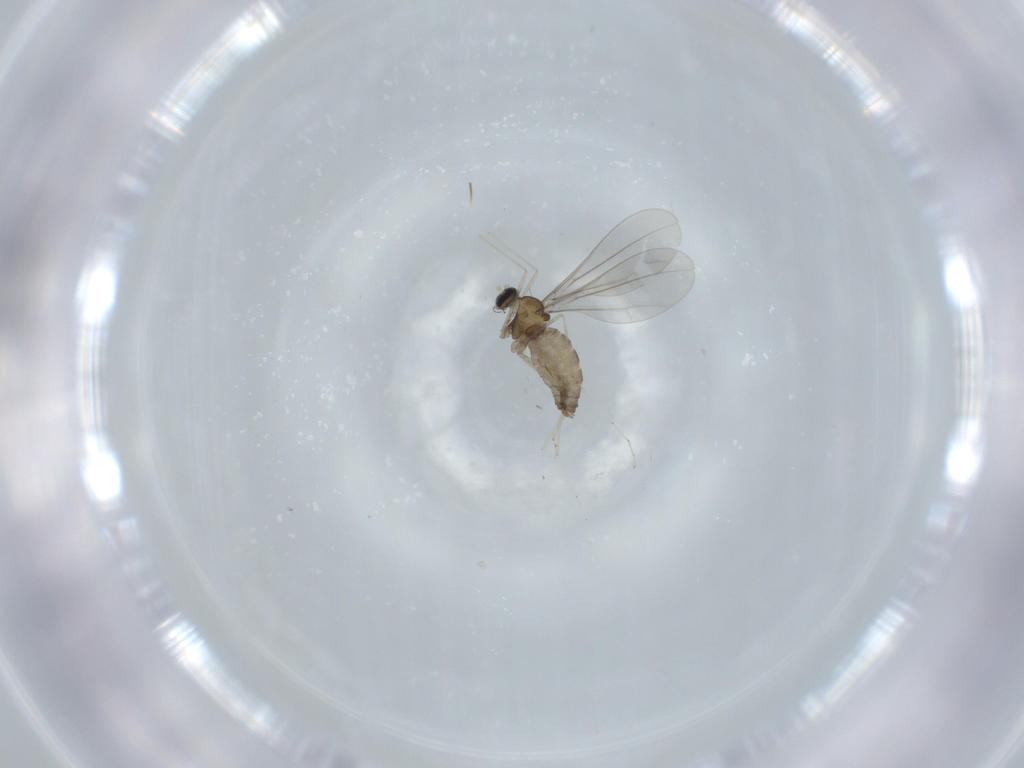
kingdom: Animalia
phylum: Arthropoda
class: Insecta
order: Diptera
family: Cecidomyiidae
